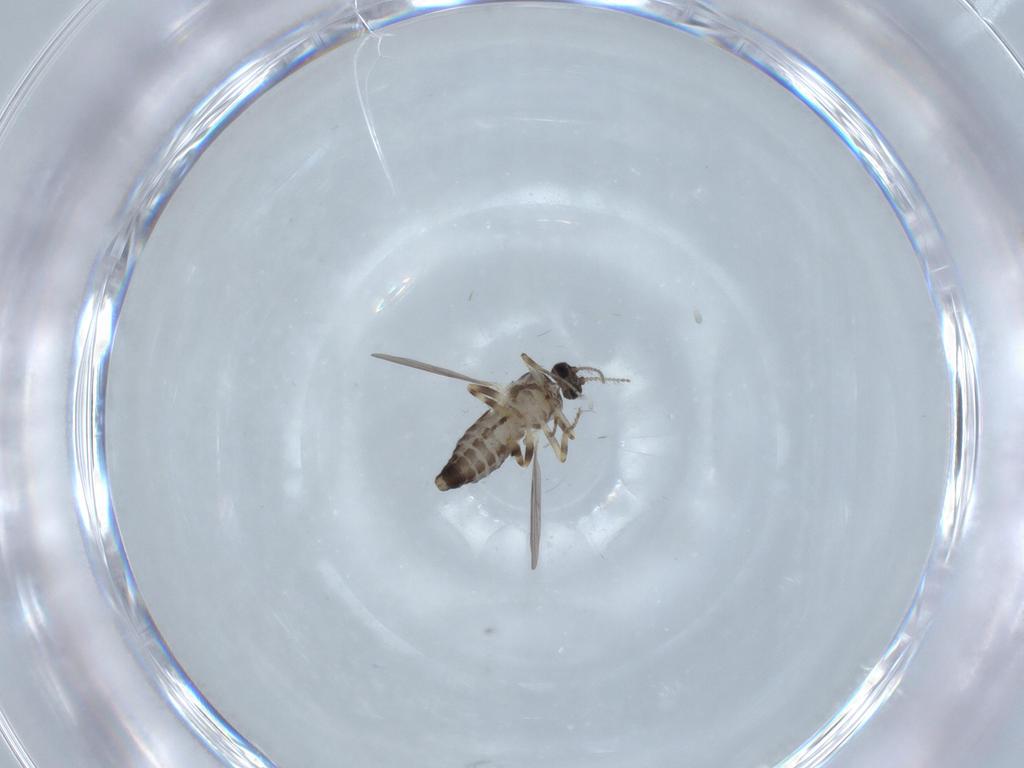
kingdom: Animalia
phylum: Arthropoda
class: Insecta
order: Diptera
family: Ceratopogonidae
